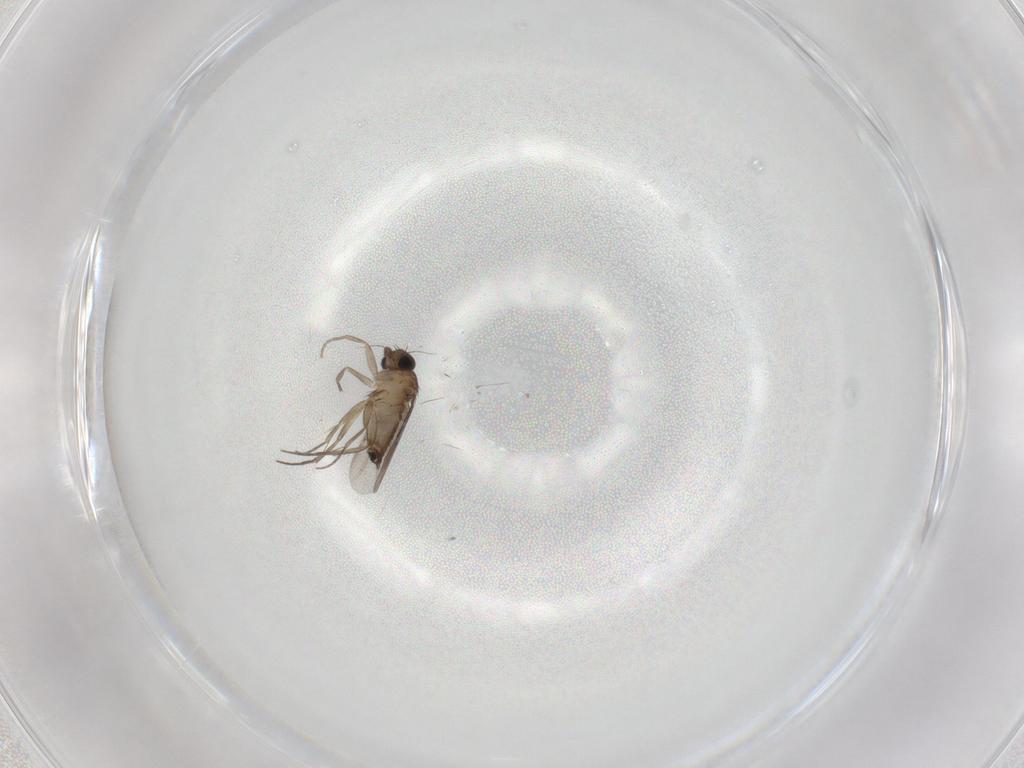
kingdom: Animalia
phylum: Arthropoda
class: Insecta
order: Diptera
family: Phoridae
